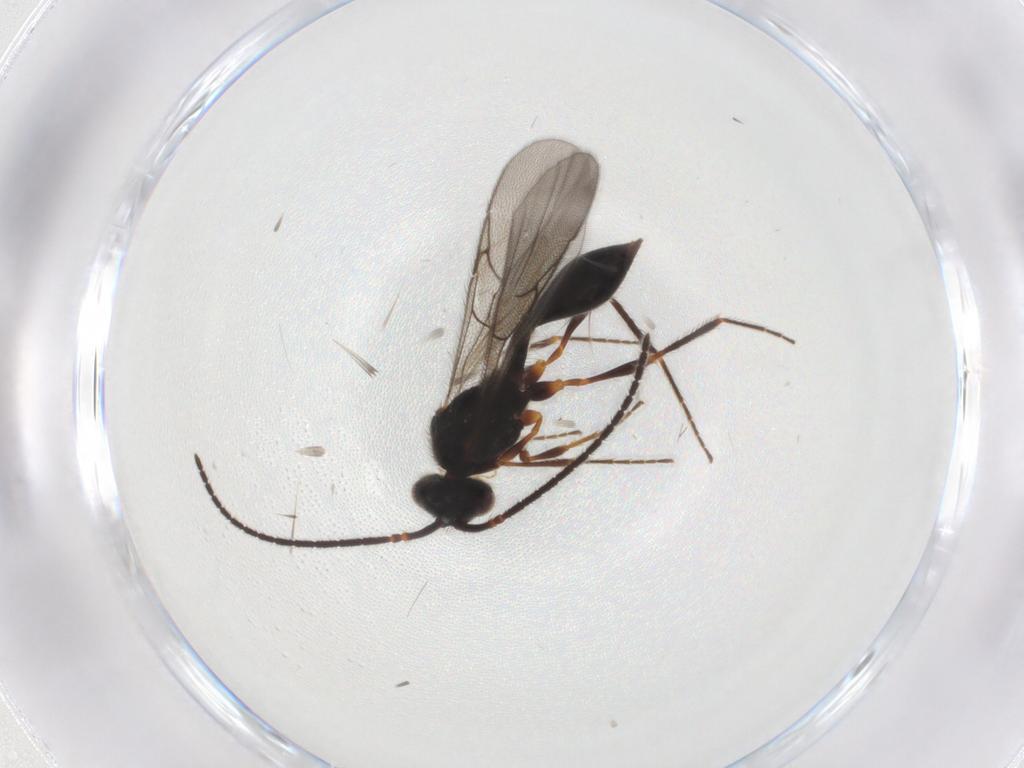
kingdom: Animalia
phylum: Arthropoda
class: Insecta
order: Hymenoptera
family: Diapriidae
